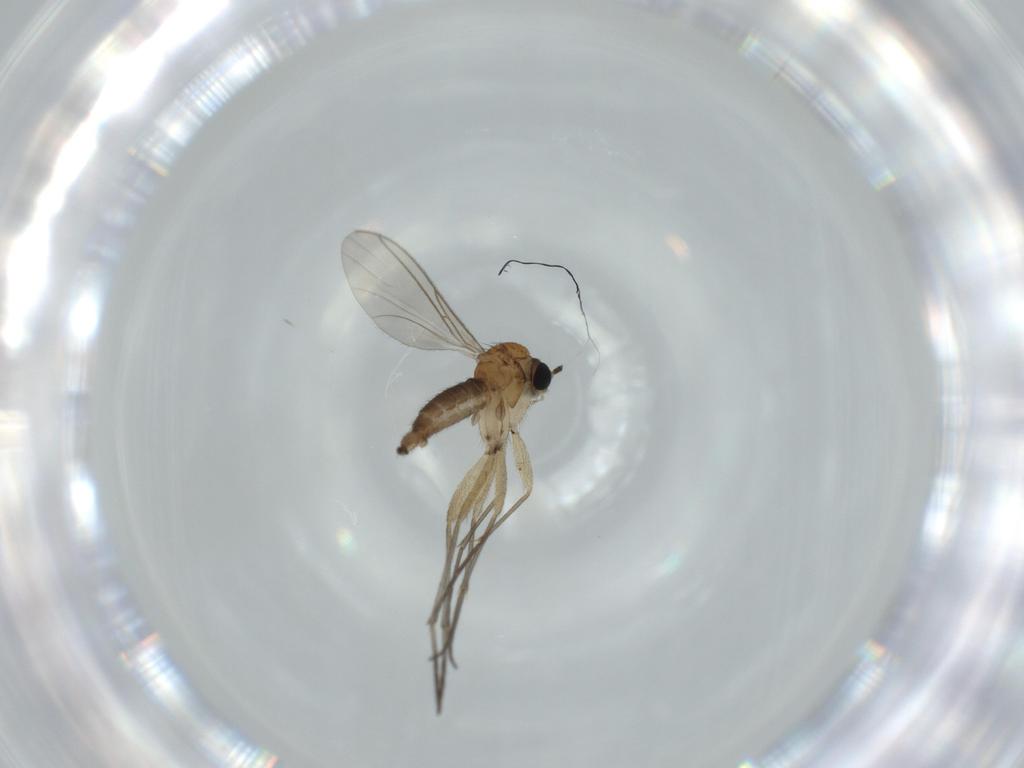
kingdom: Animalia
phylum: Arthropoda
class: Insecta
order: Diptera
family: Sciaridae
